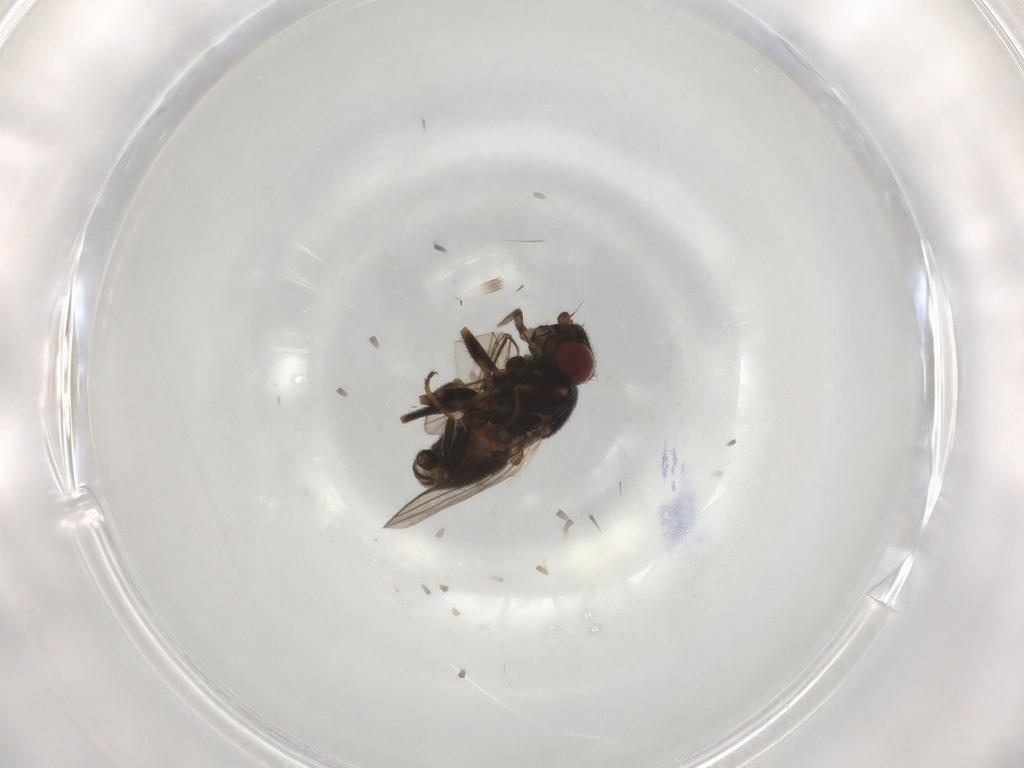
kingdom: Animalia
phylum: Arthropoda
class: Insecta
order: Diptera
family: Chloropidae
